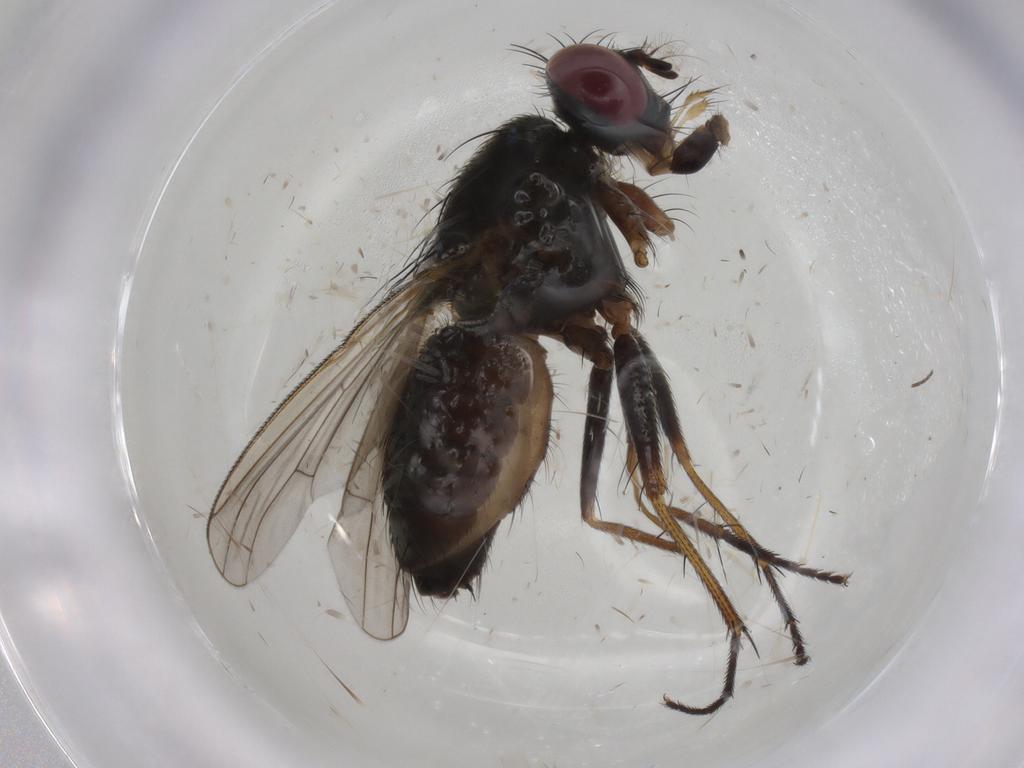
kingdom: Animalia
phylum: Arthropoda
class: Insecta
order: Diptera
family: Muscidae
